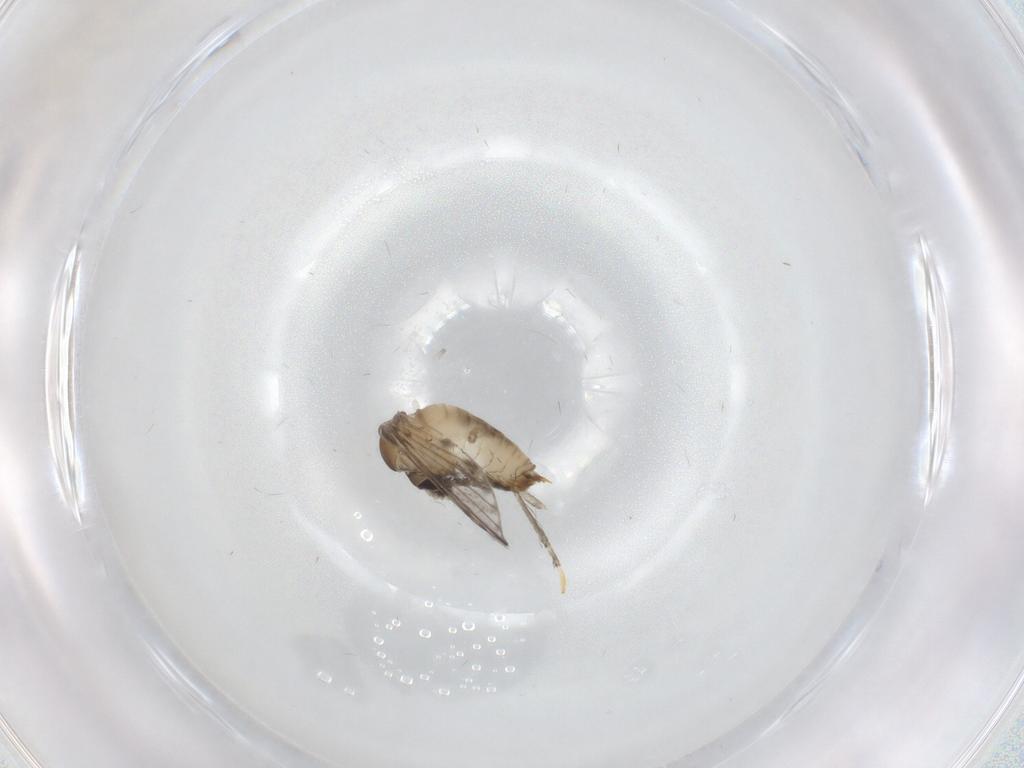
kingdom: Animalia
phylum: Arthropoda
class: Insecta
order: Diptera
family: Psychodidae
